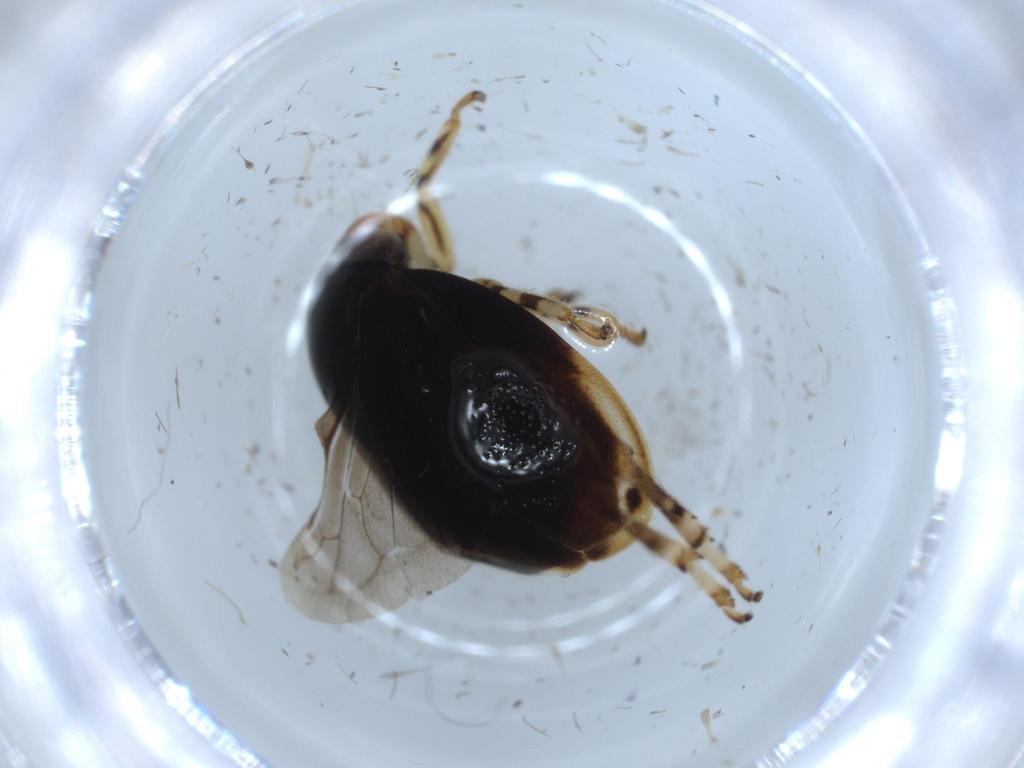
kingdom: Animalia
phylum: Arthropoda
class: Insecta
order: Hemiptera
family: Clastopteridae
